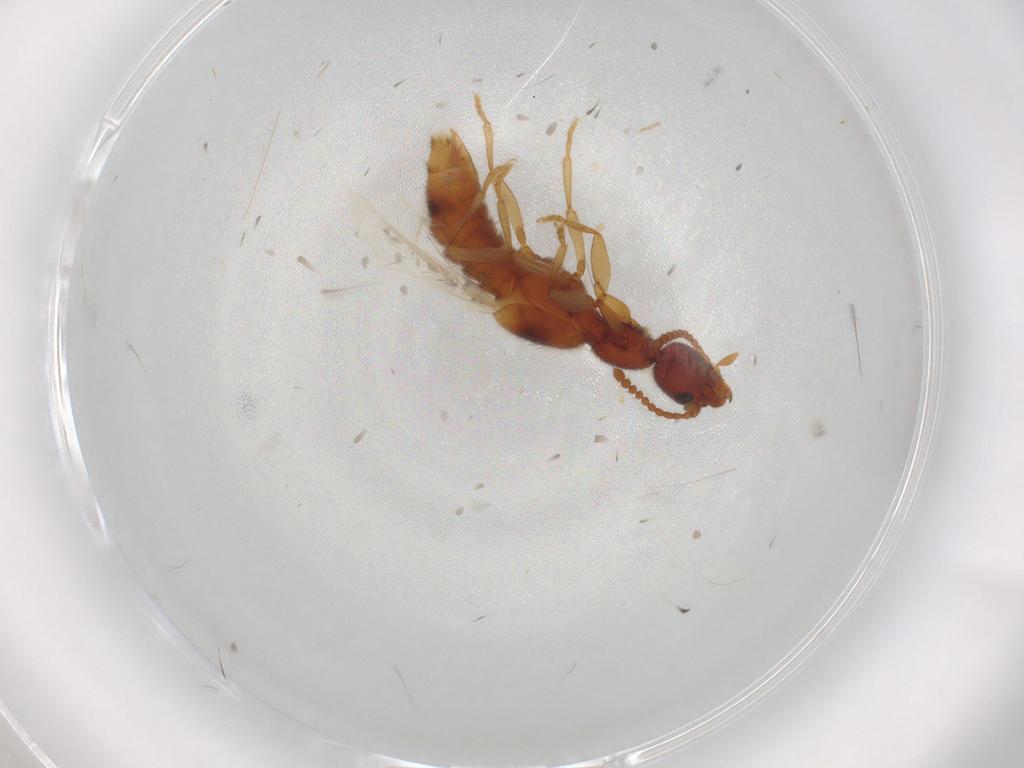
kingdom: Animalia
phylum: Arthropoda
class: Insecta
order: Coleoptera
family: Staphylinidae
